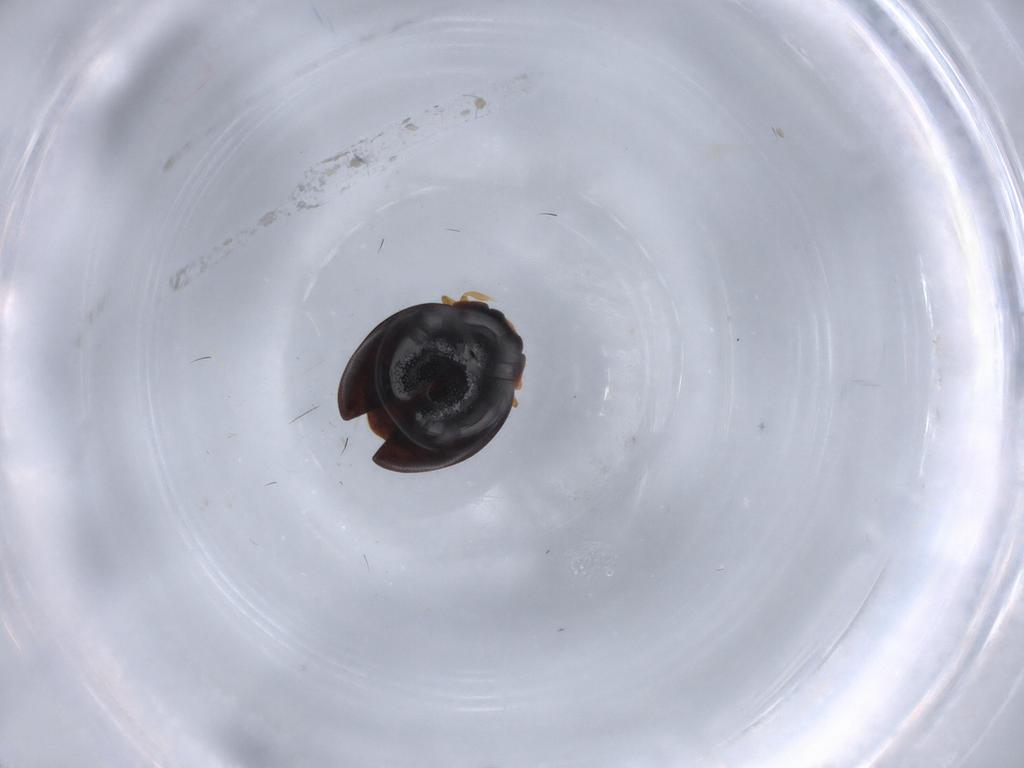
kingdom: Animalia
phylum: Arthropoda
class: Insecta
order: Coleoptera
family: Coccinellidae
